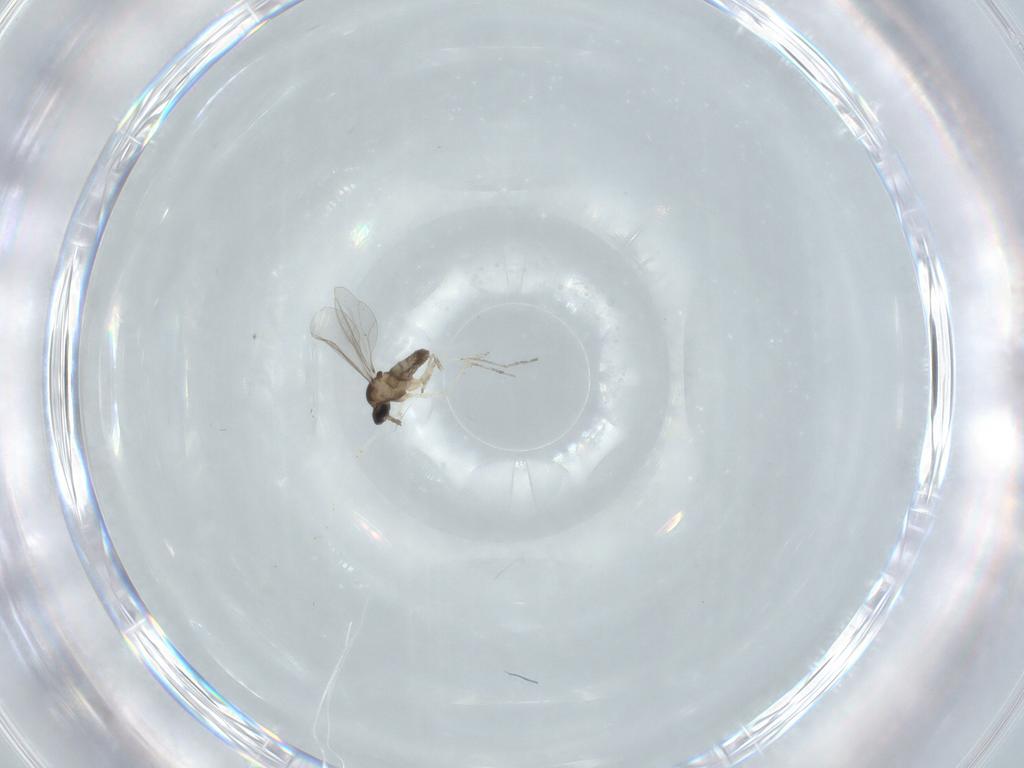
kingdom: Animalia
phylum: Arthropoda
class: Insecta
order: Diptera
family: Cecidomyiidae
